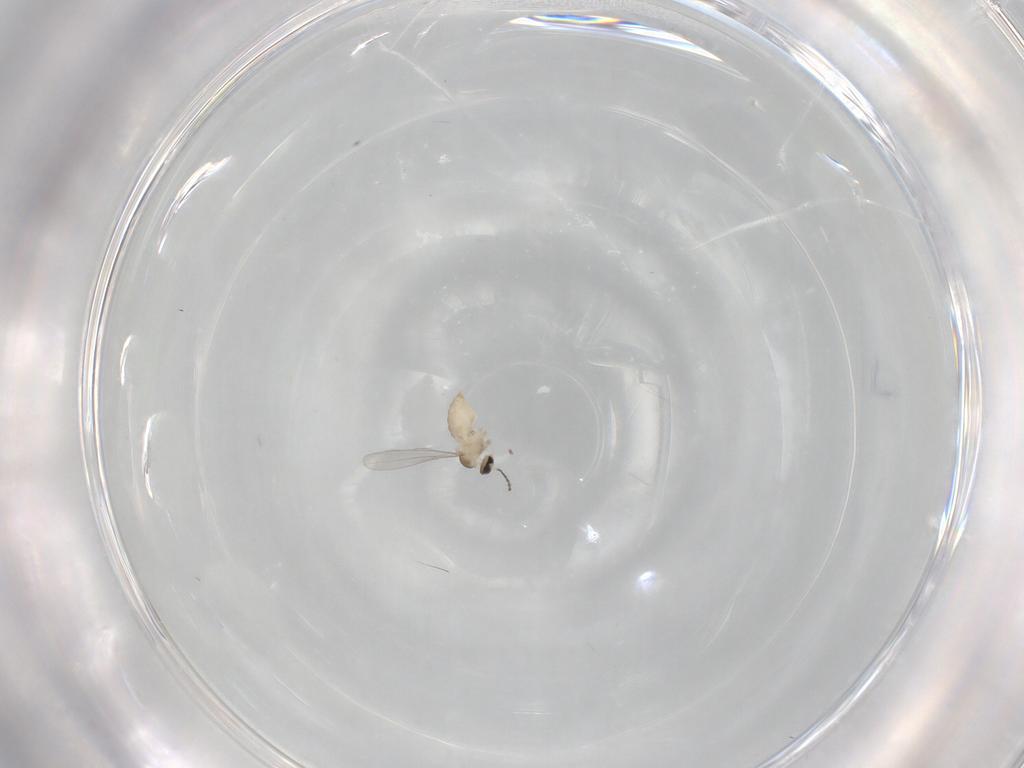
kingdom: Animalia
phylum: Arthropoda
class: Insecta
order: Diptera
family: Cecidomyiidae
